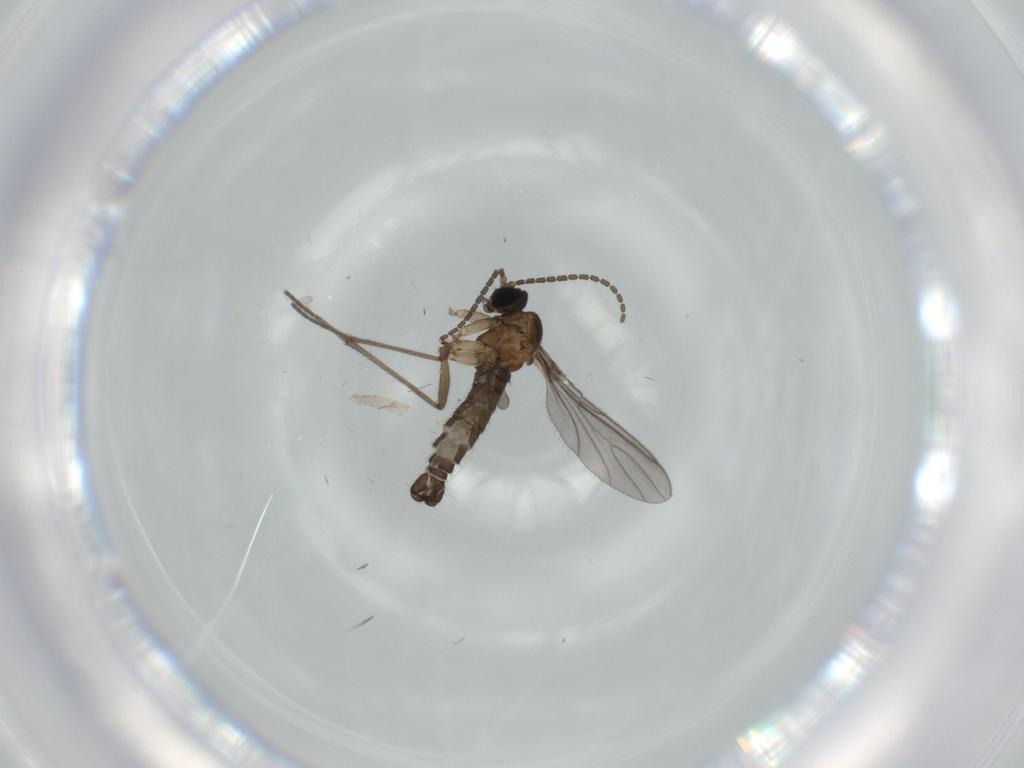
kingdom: Animalia
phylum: Arthropoda
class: Insecta
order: Diptera
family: Sciaridae
